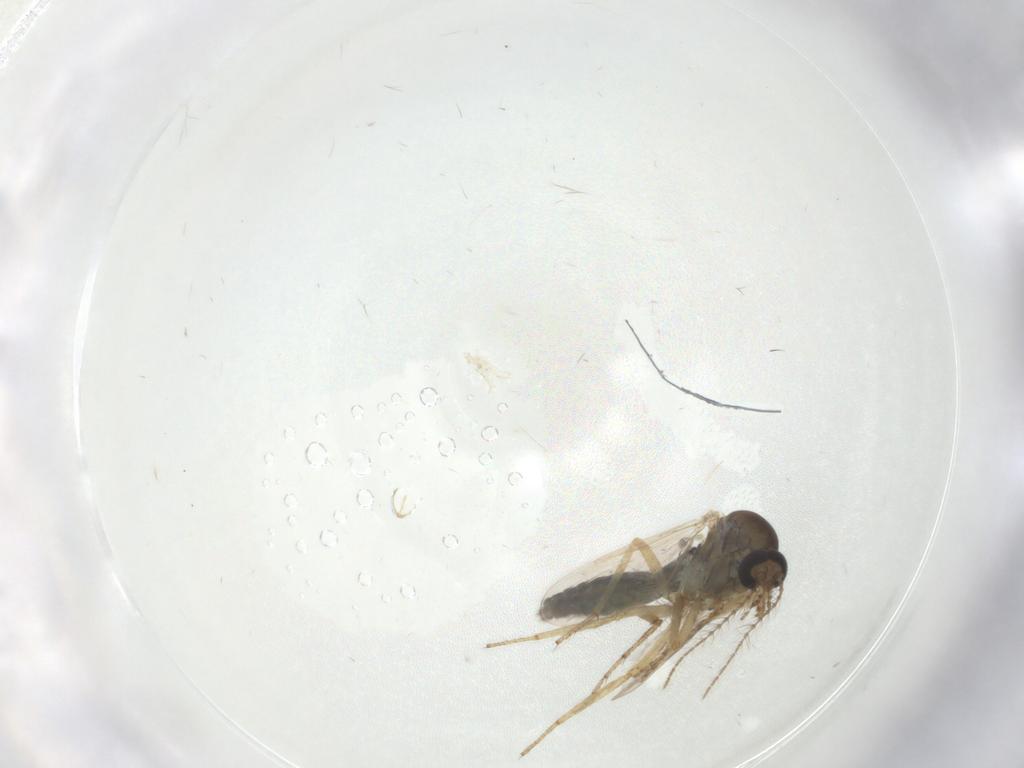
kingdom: Animalia
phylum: Arthropoda
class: Insecta
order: Diptera
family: Ceratopogonidae
